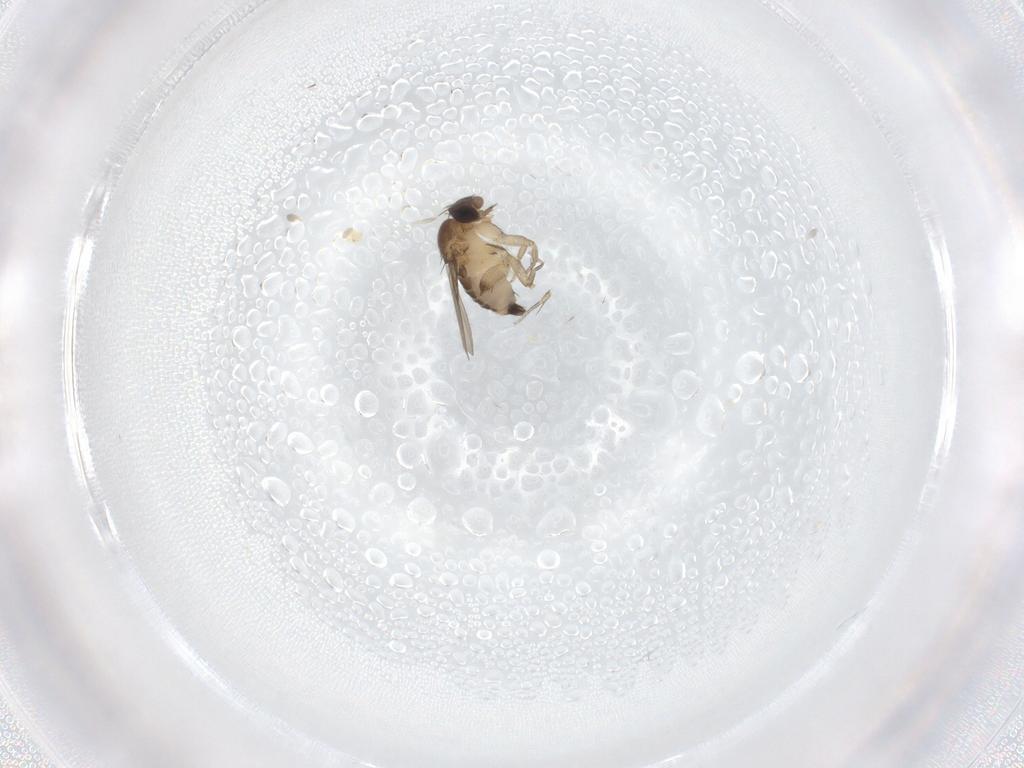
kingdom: Animalia
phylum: Arthropoda
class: Insecta
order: Diptera
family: Phoridae
